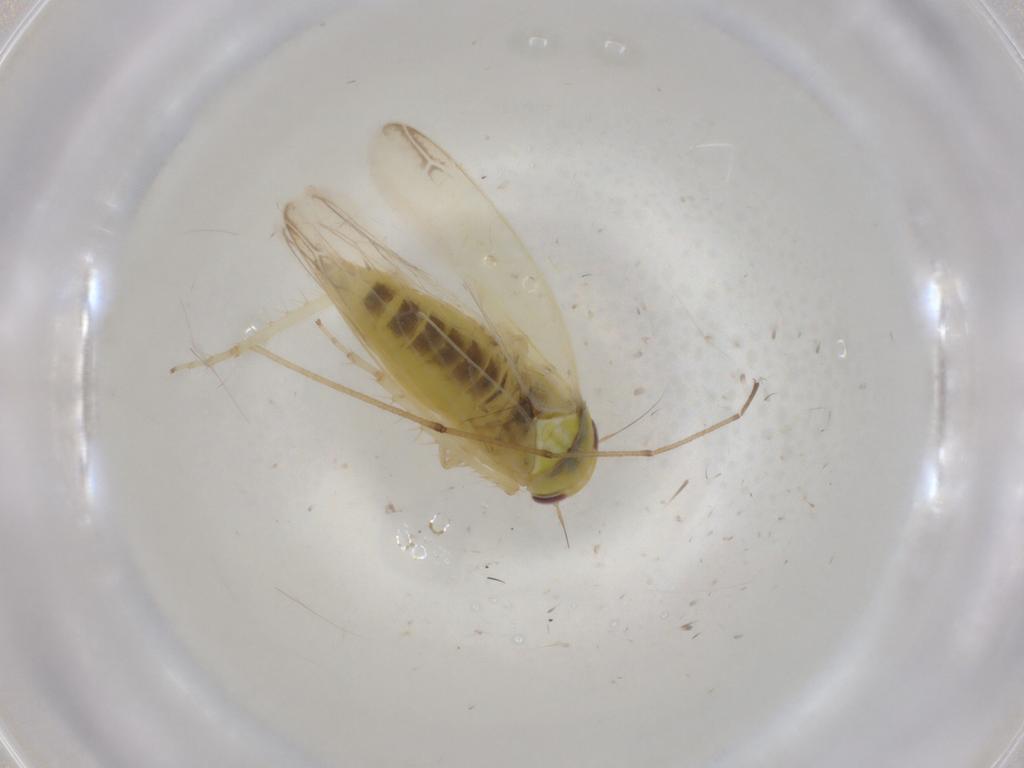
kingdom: Animalia
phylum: Arthropoda
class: Insecta
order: Hemiptera
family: Cicadellidae
